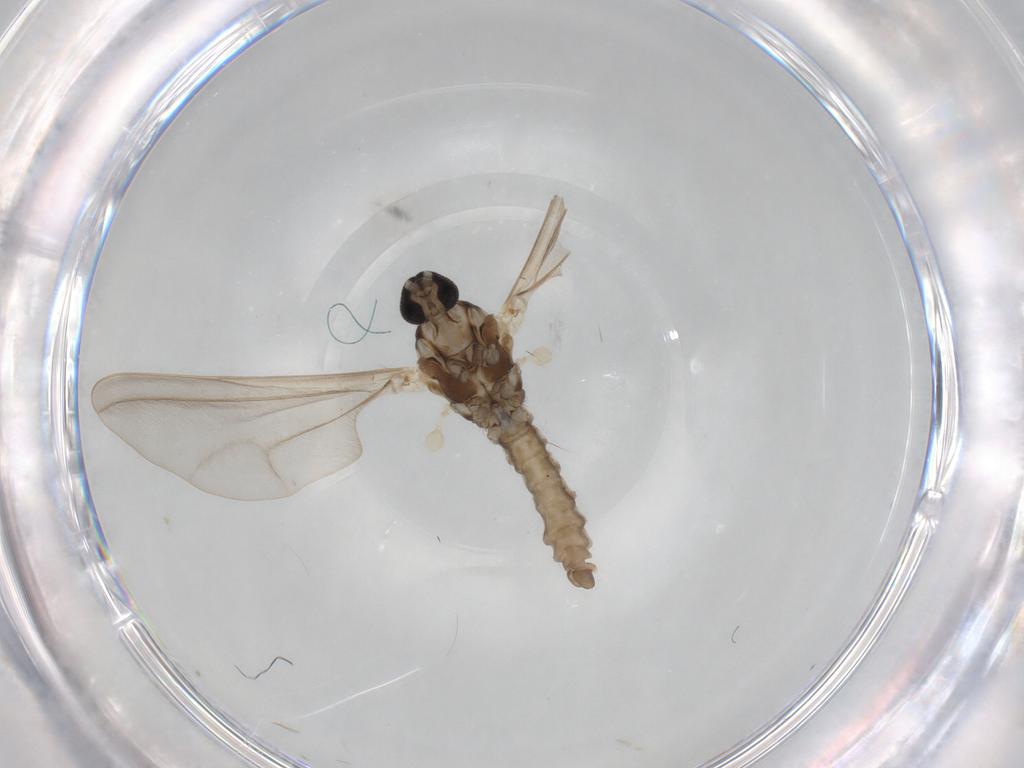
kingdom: Animalia
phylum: Arthropoda
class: Insecta
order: Diptera
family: Cecidomyiidae
